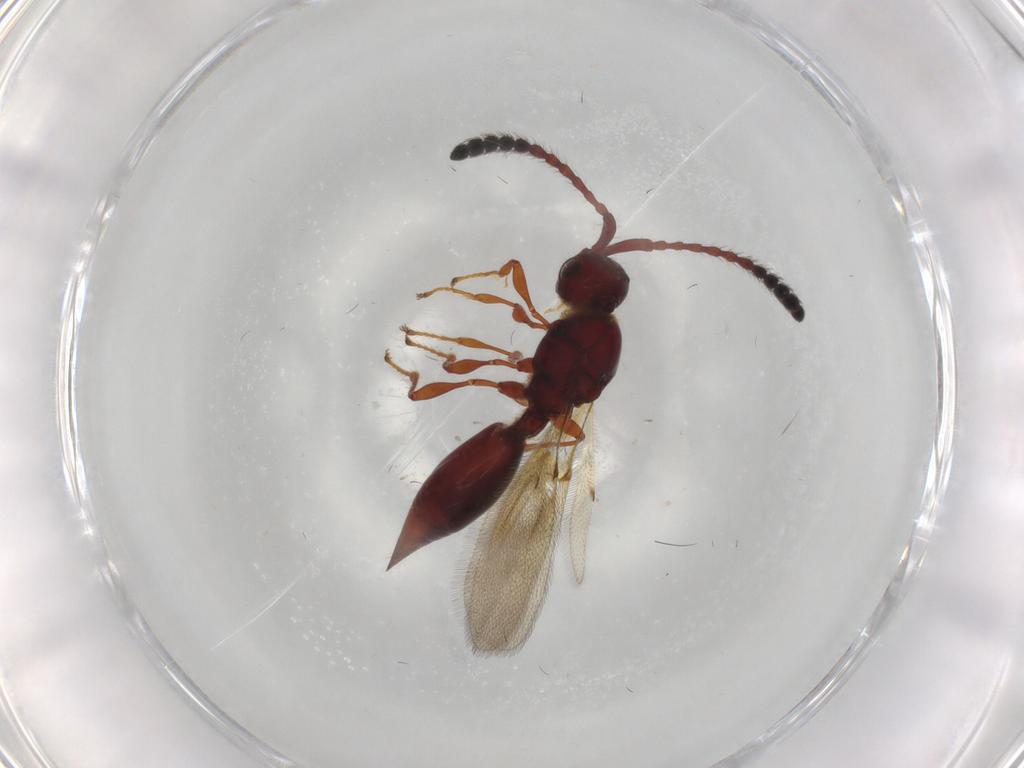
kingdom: Animalia
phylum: Arthropoda
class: Insecta
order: Hymenoptera
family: Diapriidae
